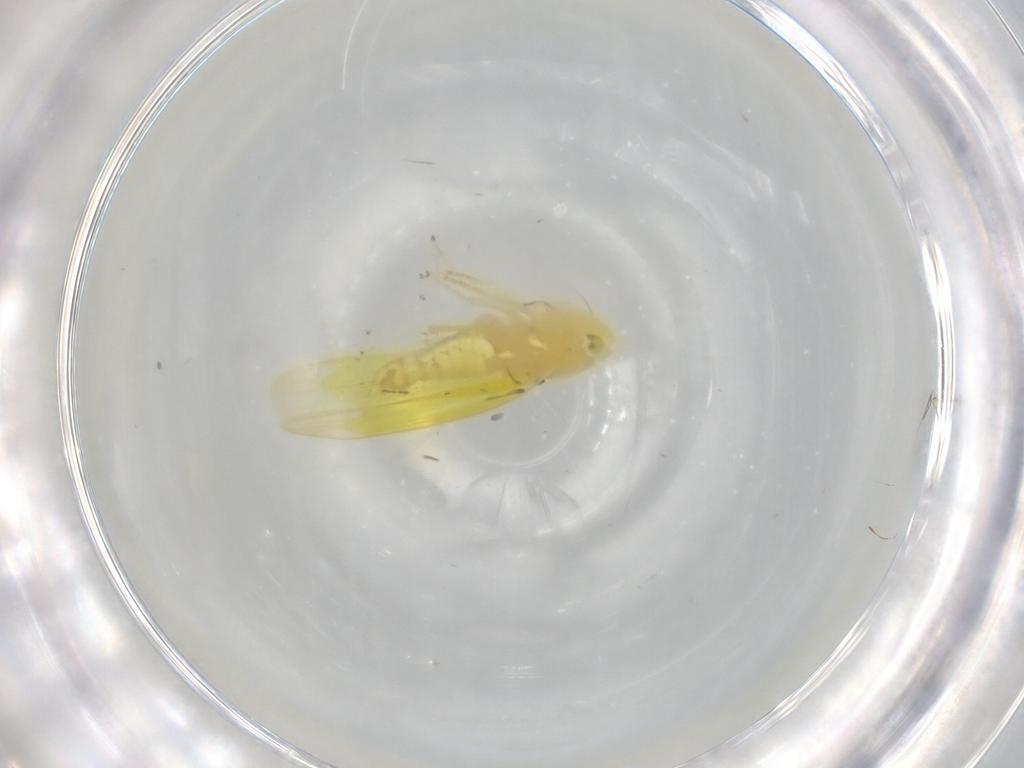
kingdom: Animalia
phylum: Arthropoda
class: Insecta
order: Hemiptera
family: Cicadellidae
